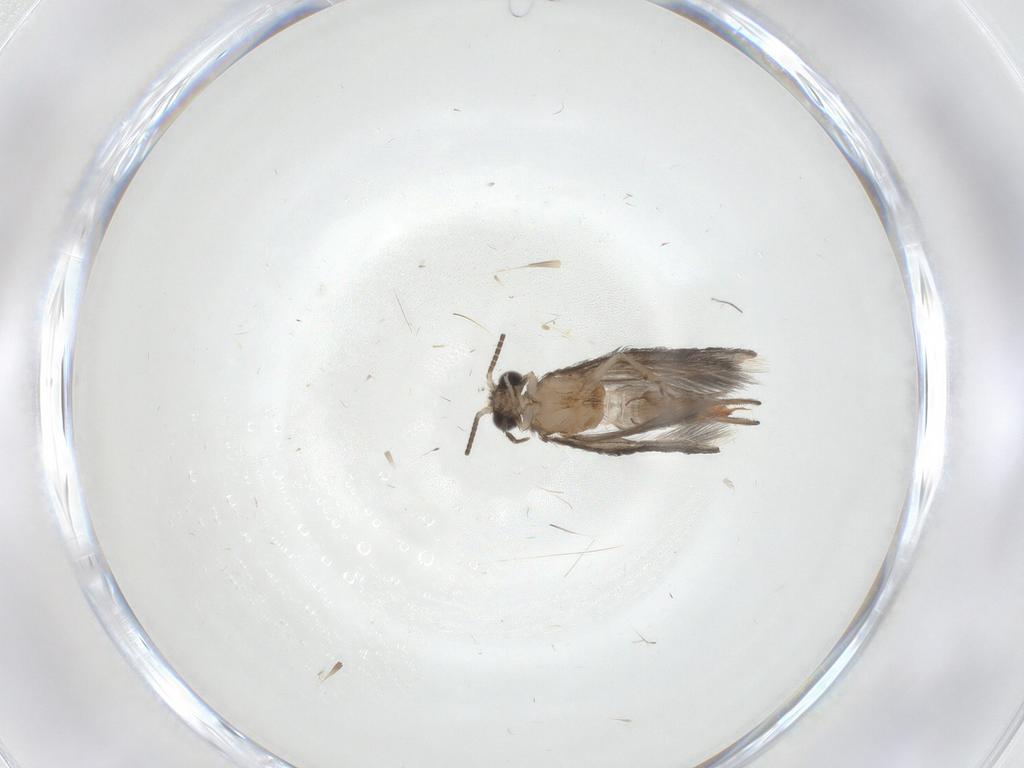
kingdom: Animalia
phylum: Arthropoda
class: Insecta
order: Trichoptera
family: Hydroptilidae
